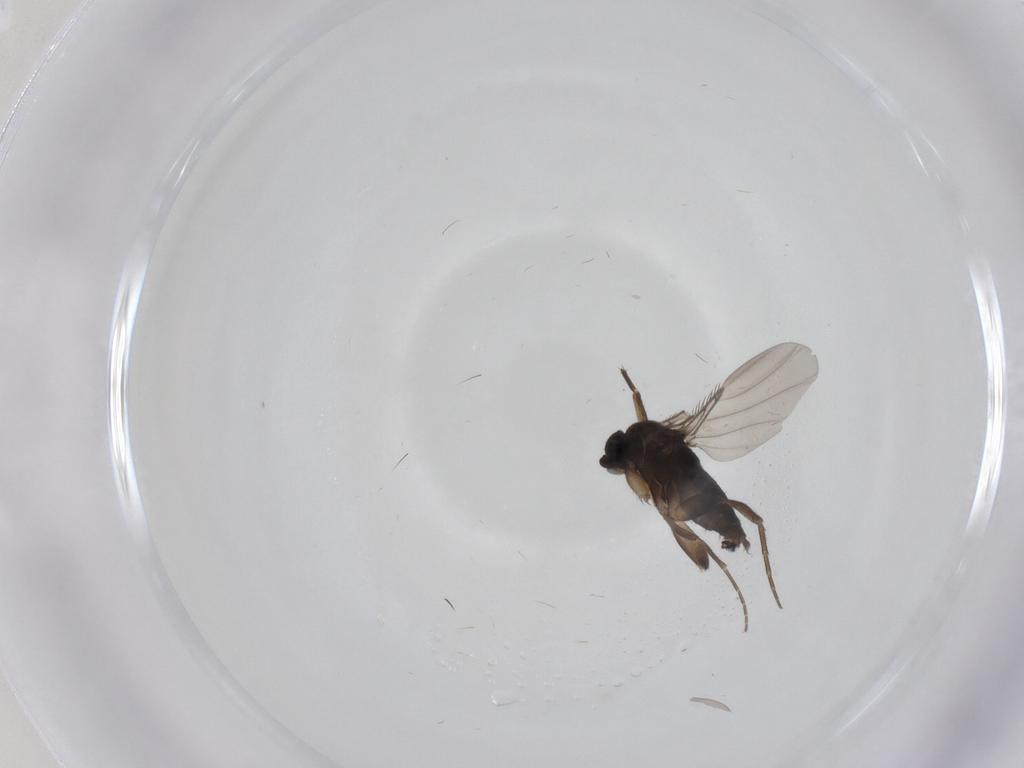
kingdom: Animalia
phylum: Arthropoda
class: Insecta
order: Diptera
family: Phoridae
